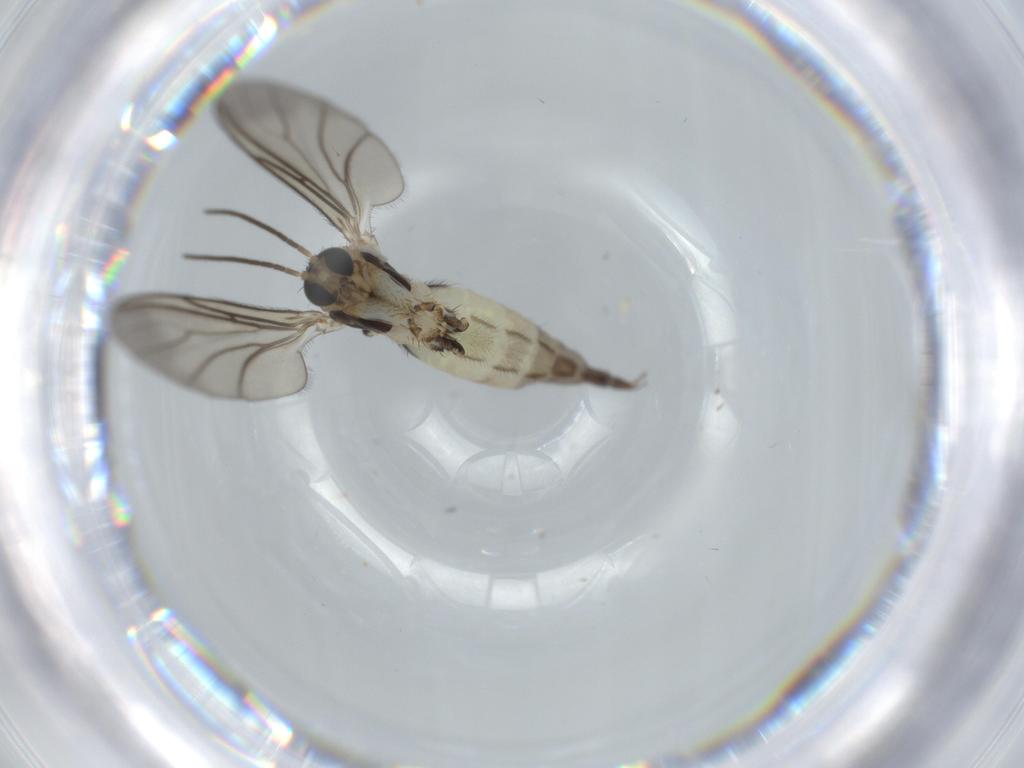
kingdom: Animalia
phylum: Arthropoda
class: Insecta
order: Diptera
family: Sciaridae
